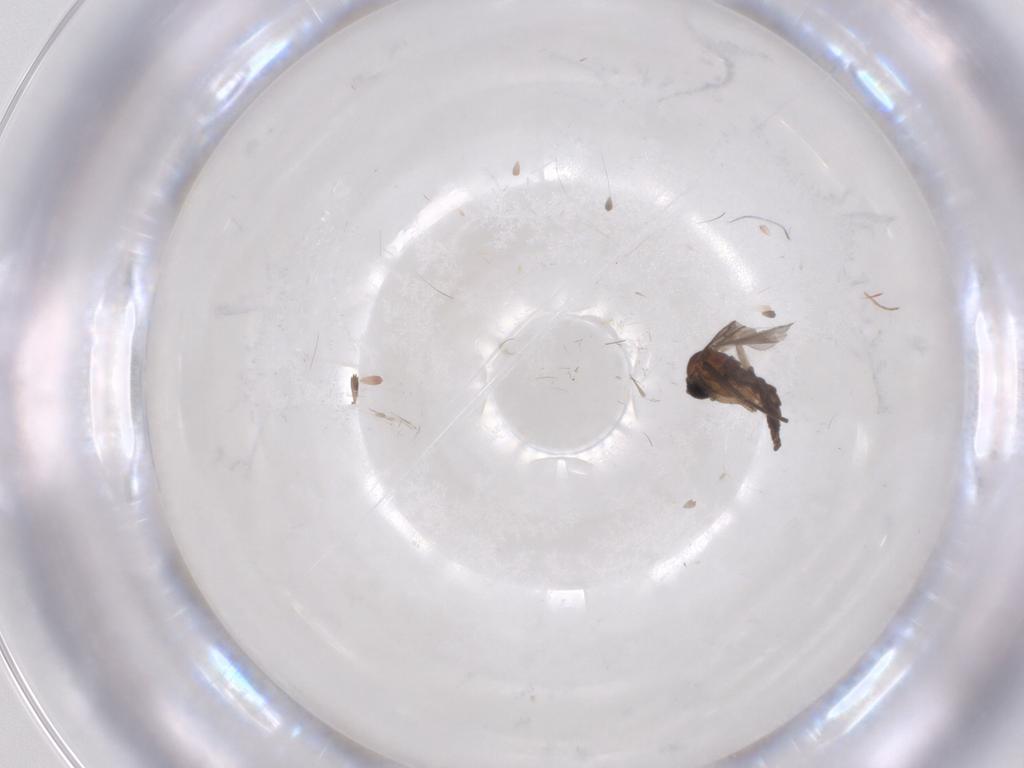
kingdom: Animalia
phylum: Arthropoda
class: Insecta
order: Diptera
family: Chironomidae
